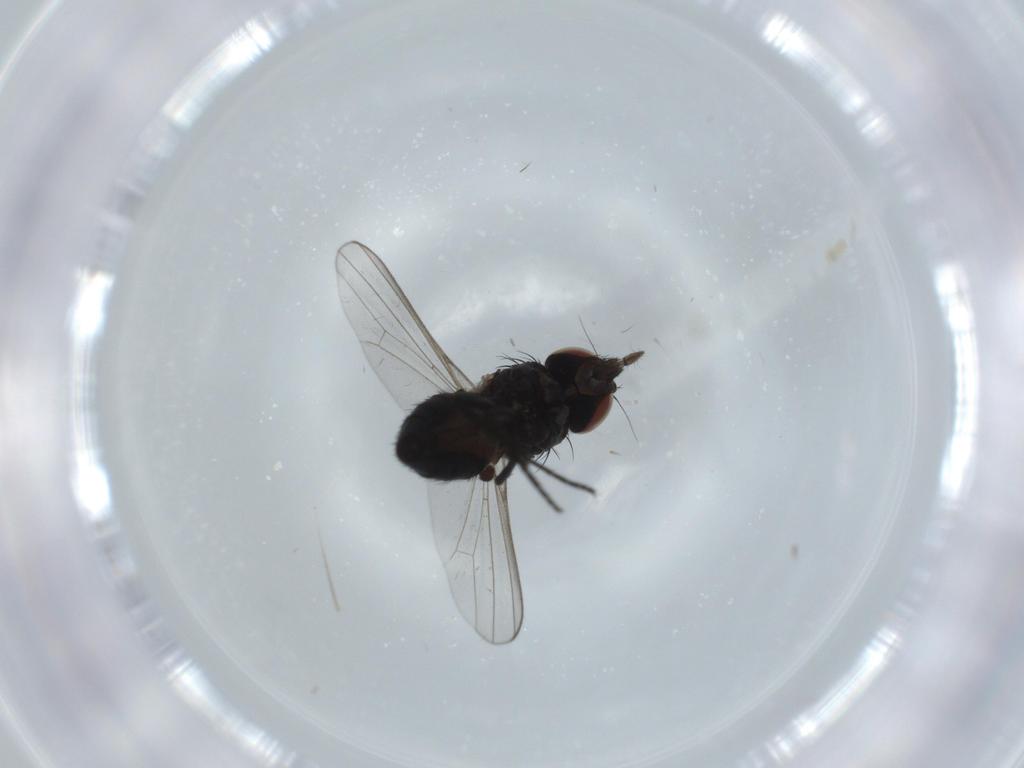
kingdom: Animalia
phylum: Arthropoda
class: Insecta
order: Diptera
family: Milichiidae
